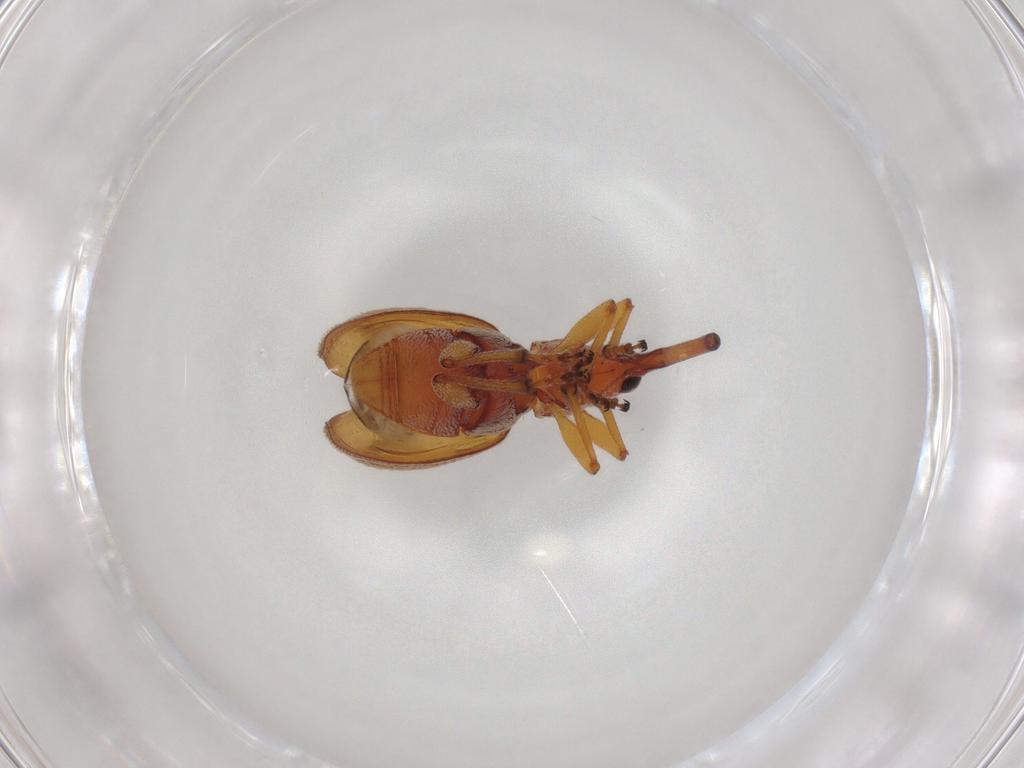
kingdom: Animalia
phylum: Arthropoda
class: Insecta
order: Coleoptera
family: Brentidae
